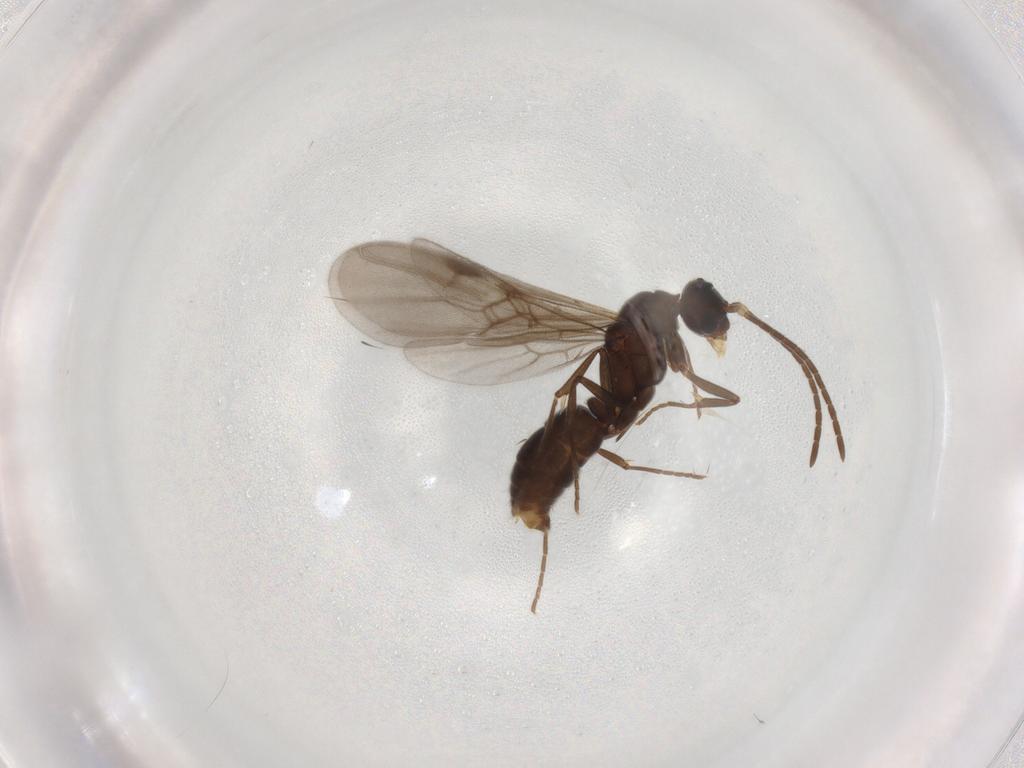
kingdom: Animalia
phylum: Arthropoda
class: Insecta
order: Hymenoptera
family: Formicidae
